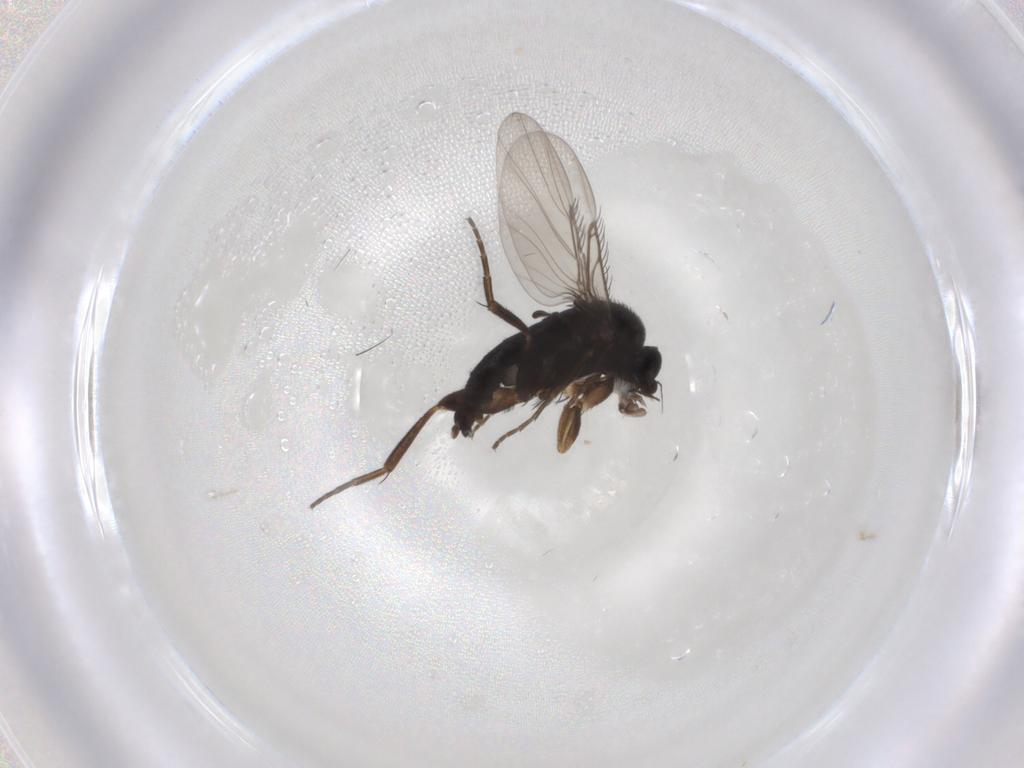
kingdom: Animalia
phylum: Arthropoda
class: Insecta
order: Diptera
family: Phoridae
